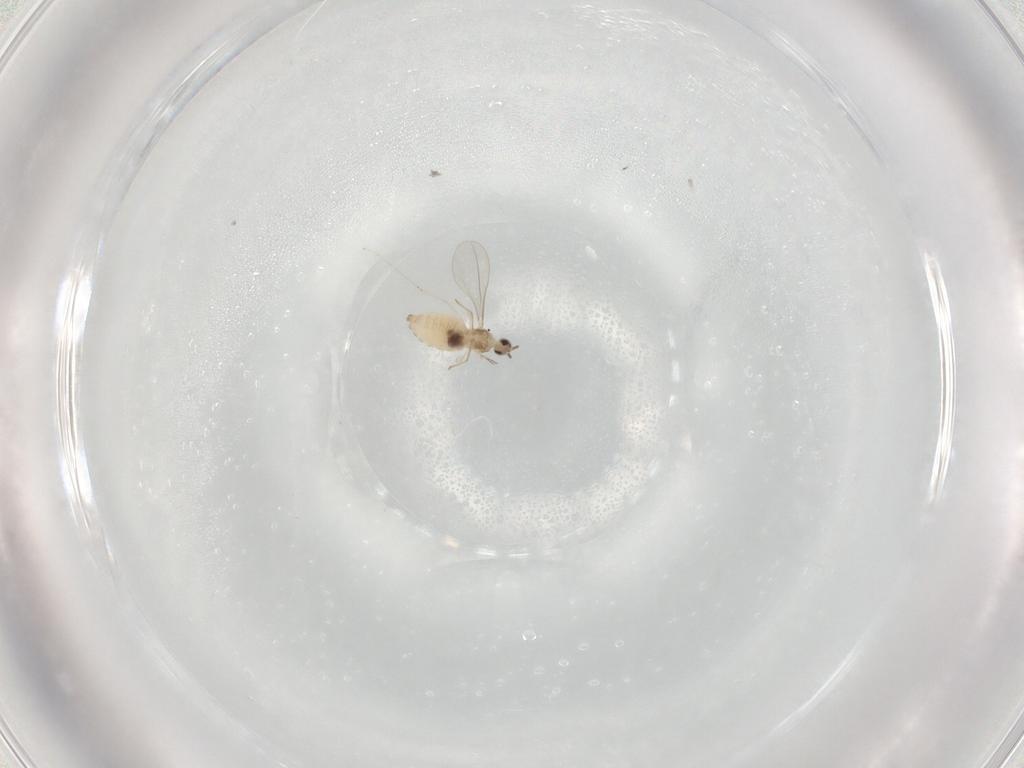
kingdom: Animalia
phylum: Arthropoda
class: Insecta
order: Diptera
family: Cecidomyiidae
